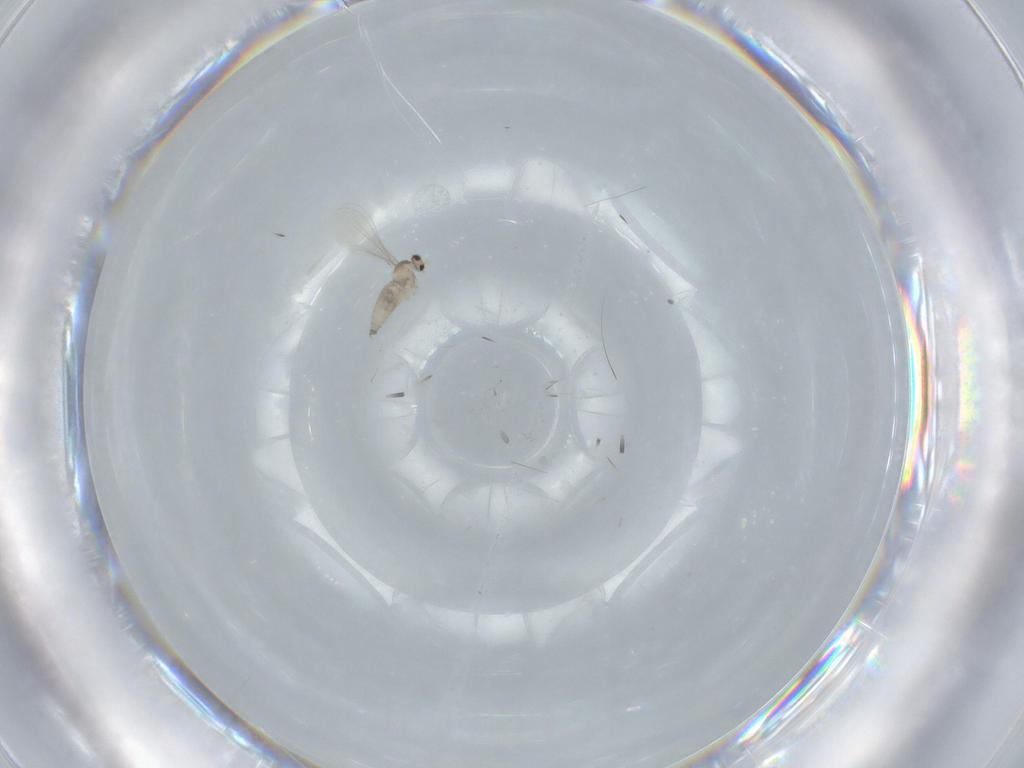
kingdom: Animalia
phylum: Arthropoda
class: Insecta
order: Diptera
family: Cecidomyiidae
